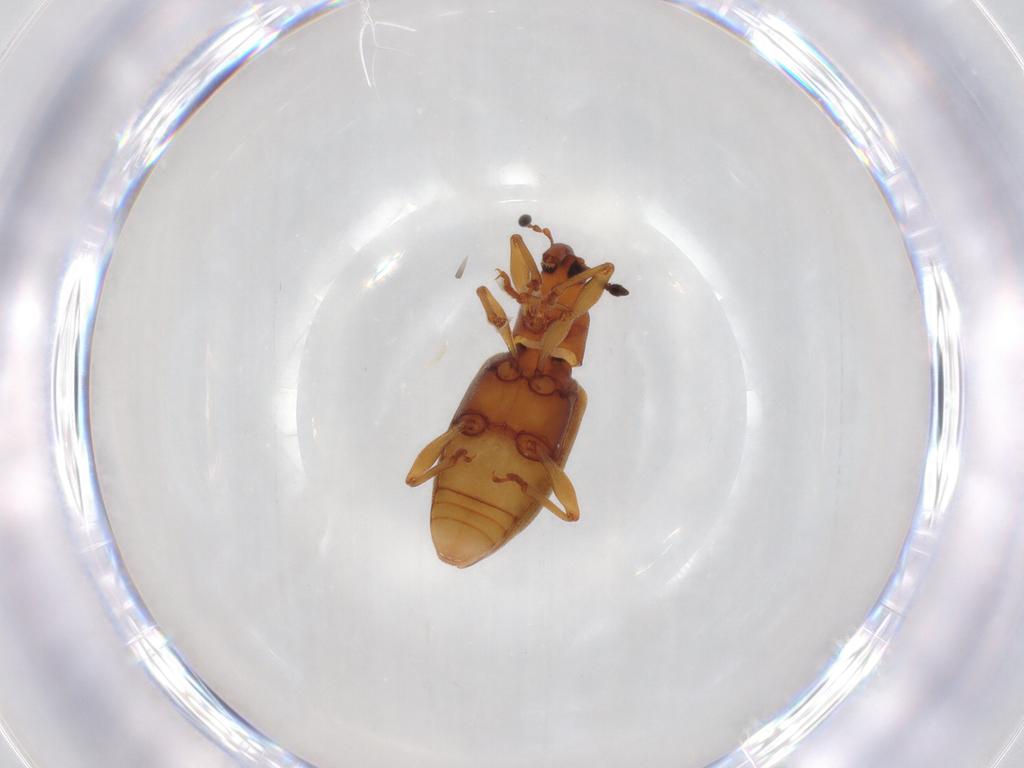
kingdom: Animalia
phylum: Arthropoda
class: Insecta
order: Coleoptera
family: Curculionidae
